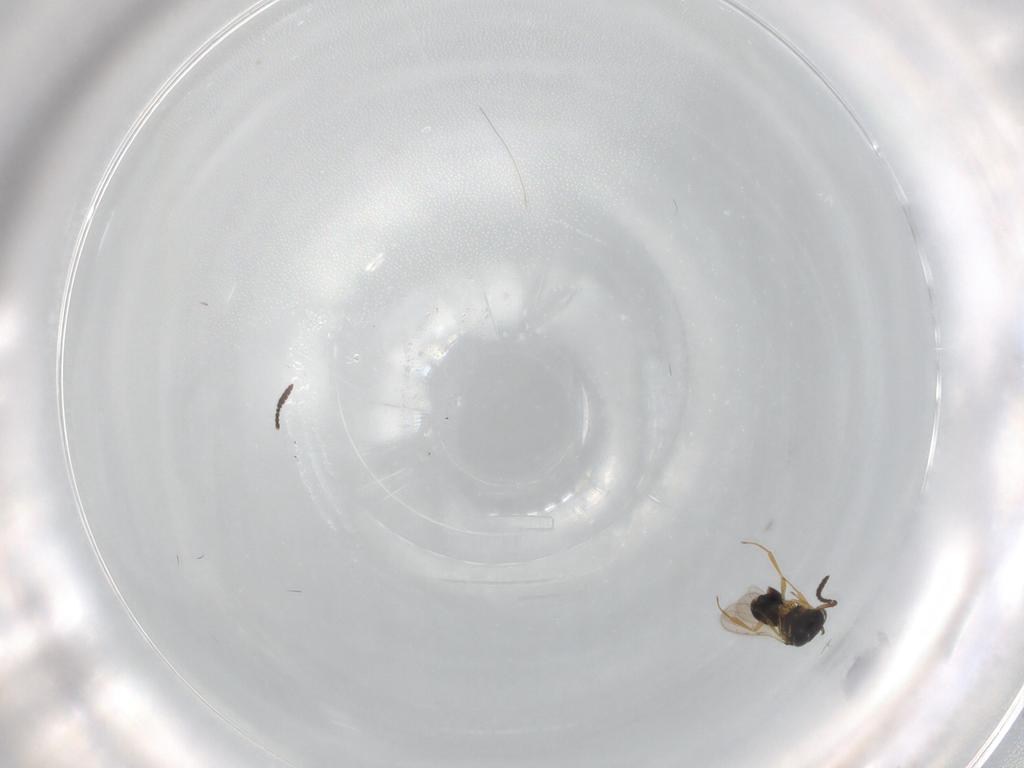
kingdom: Animalia
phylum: Arthropoda
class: Insecta
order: Hymenoptera
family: Scelionidae
